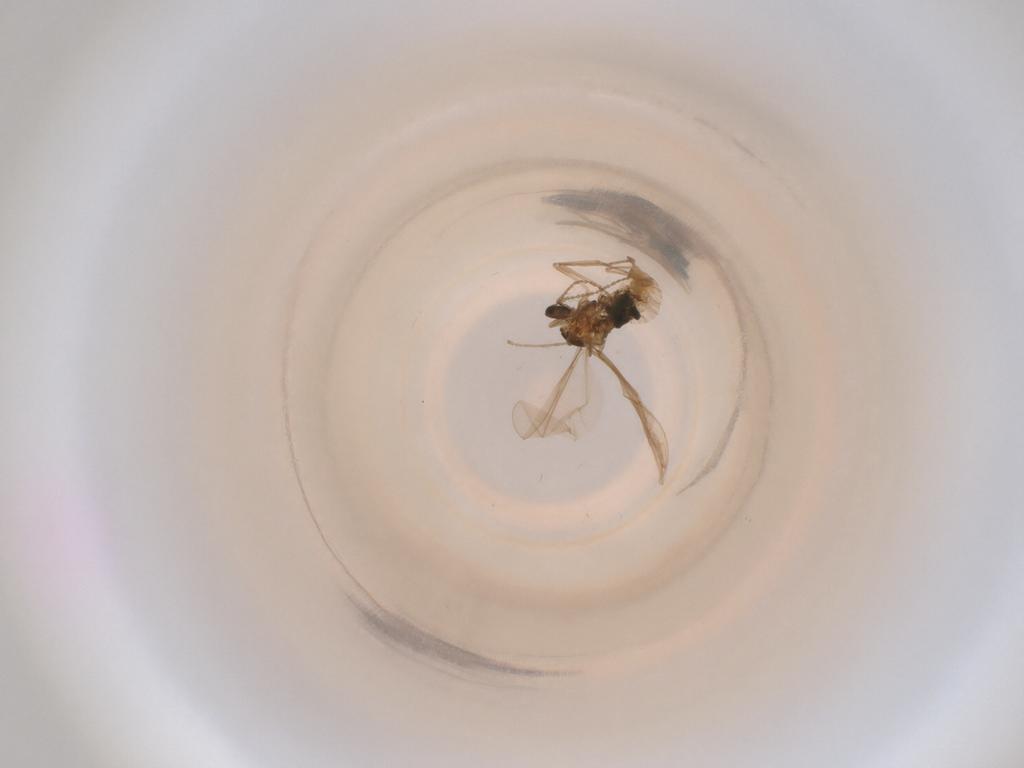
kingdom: Animalia
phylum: Arthropoda
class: Insecta
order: Diptera
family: Cecidomyiidae
